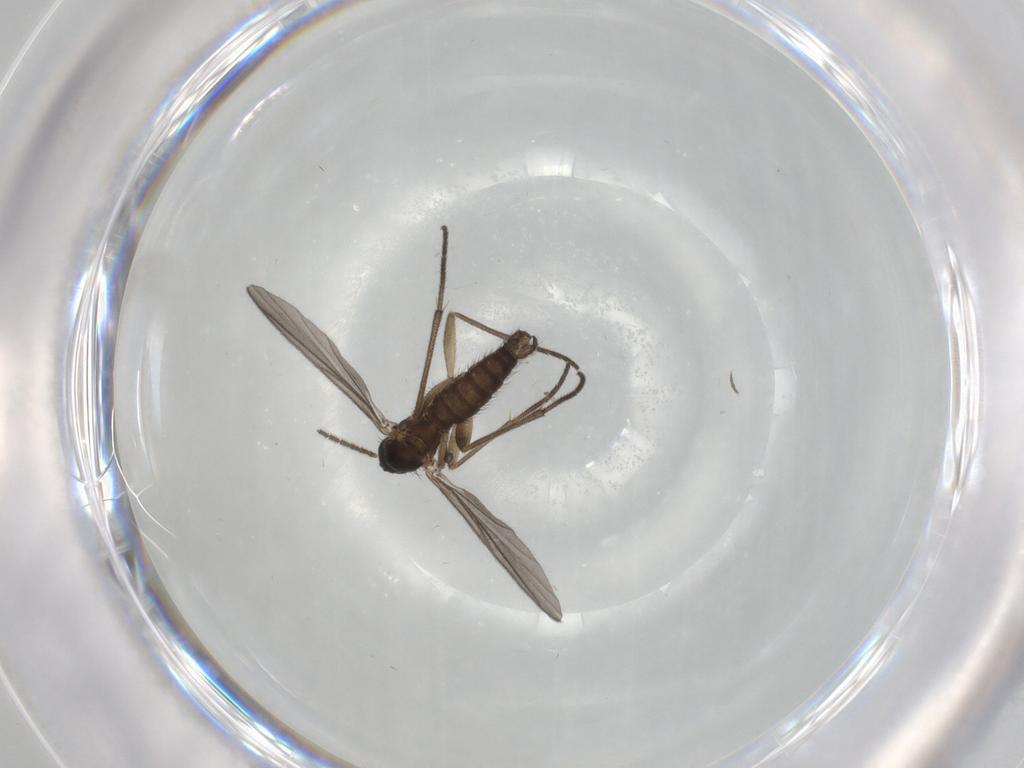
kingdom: Animalia
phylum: Arthropoda
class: Insecta
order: Diptera
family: Sciaridae
